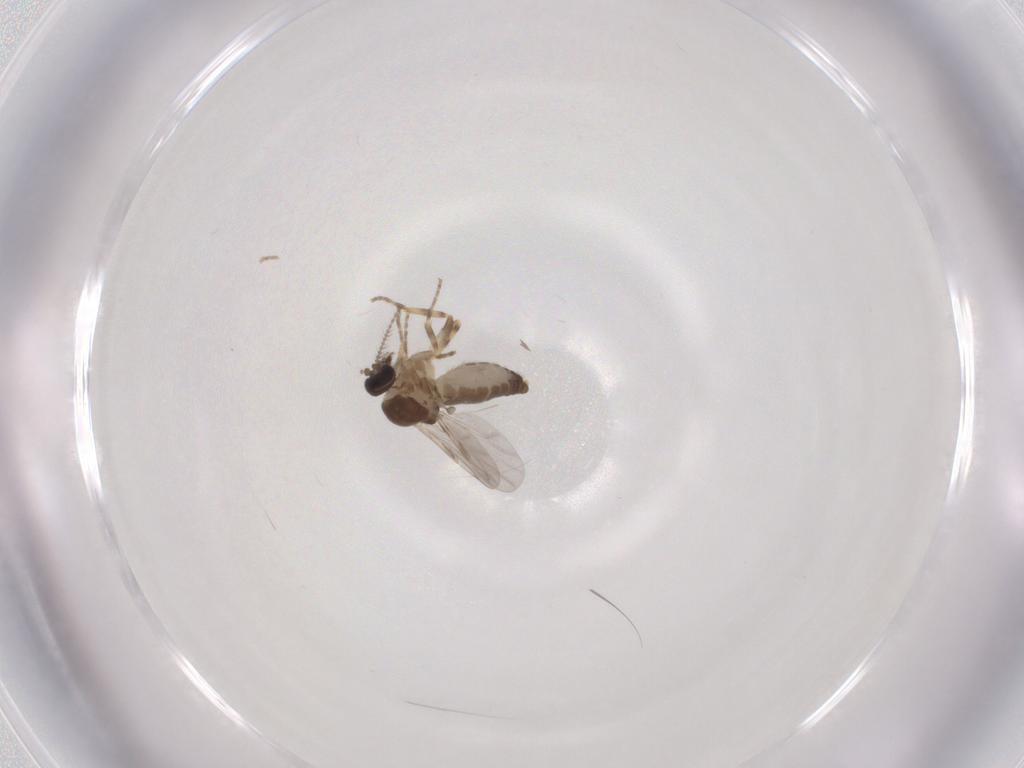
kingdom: Animalia
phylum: Arthropoda
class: Insecta
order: Diptera
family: Ceratopogonidae
